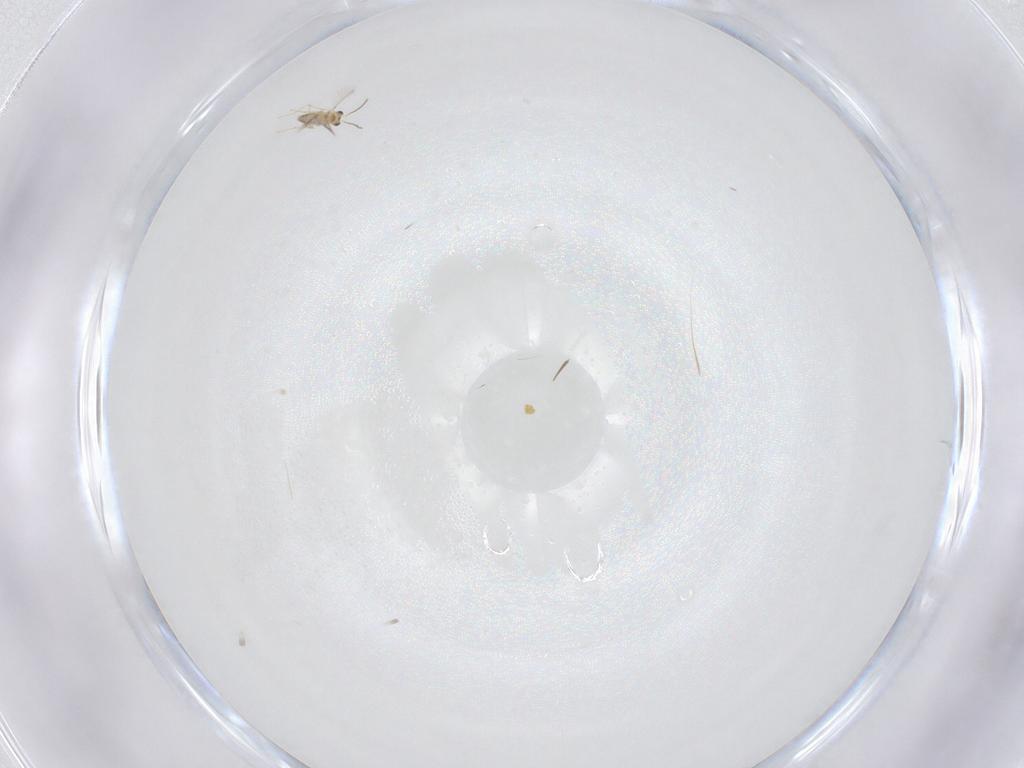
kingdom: Animalia
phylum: Arthropoda
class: Insecta
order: Hymenoptera
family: Mymaridae
